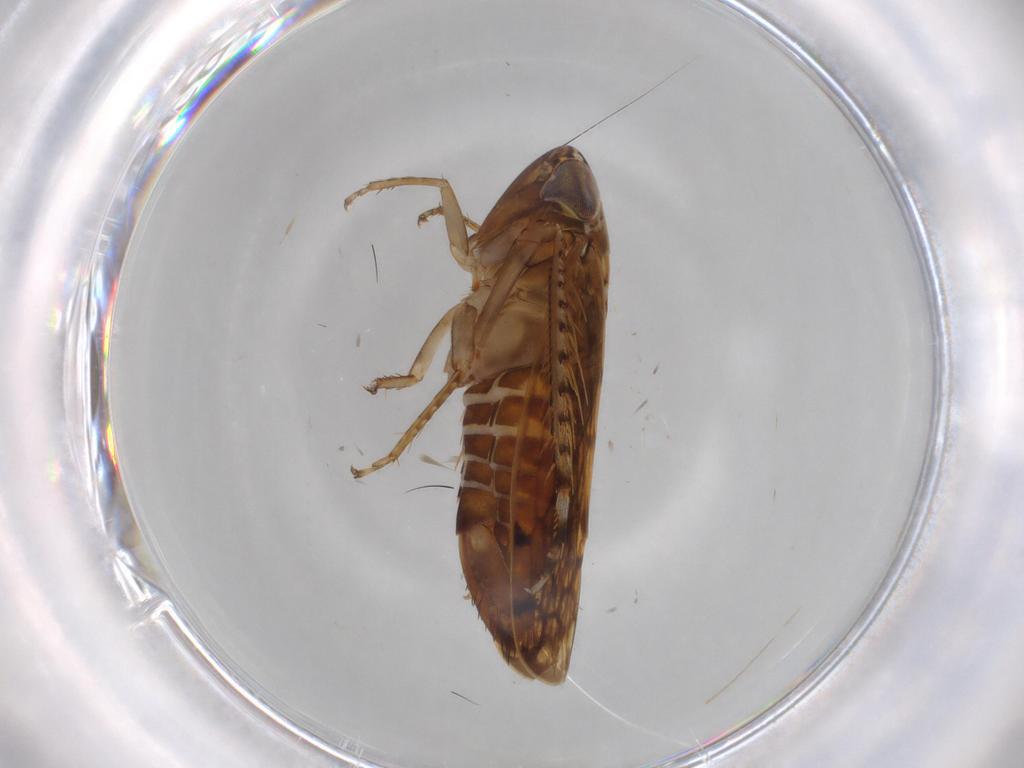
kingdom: Animalia
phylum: Arthropoda
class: Insecta
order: Hemiptera
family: Cicadellidae
